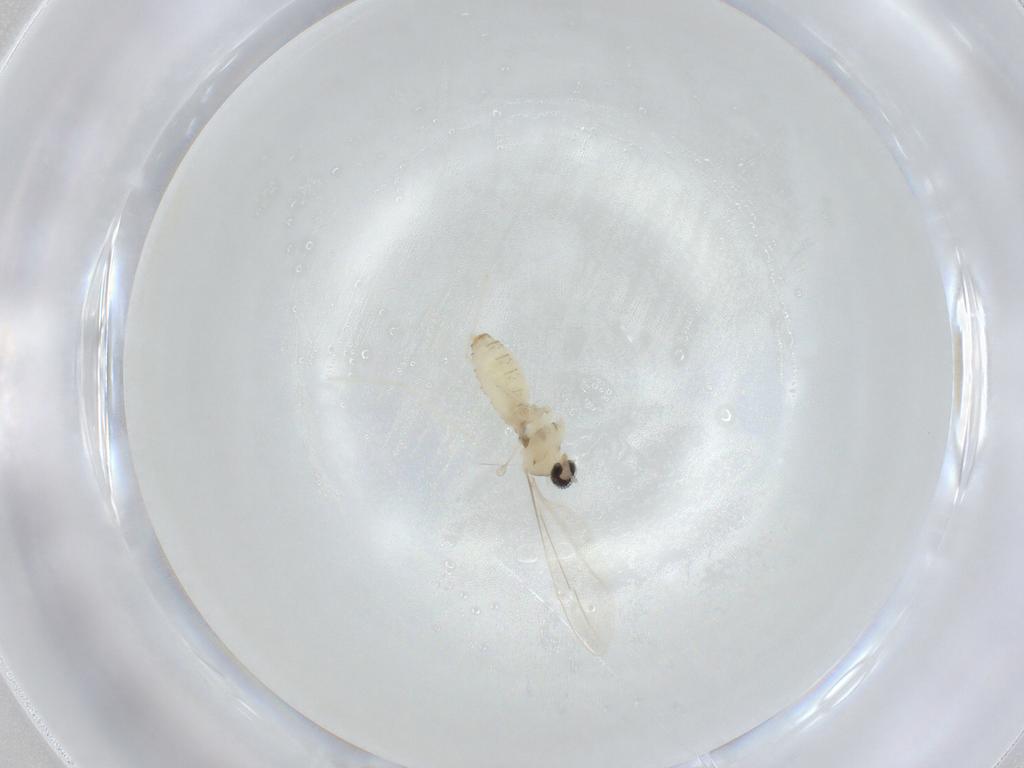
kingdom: Animalia
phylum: Arthropoda
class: Insecta
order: Diptera
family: Cecidomyiidae
